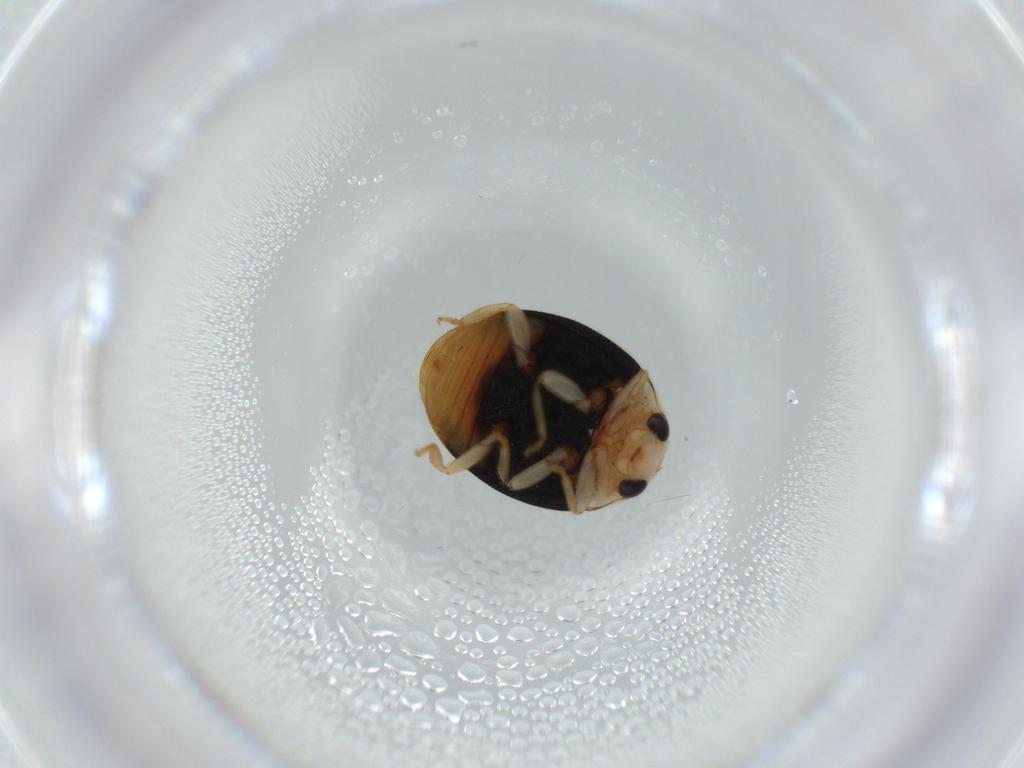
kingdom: Animalia
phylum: Arthropoda
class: Insecta
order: Coleoptera
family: Coccinellidae
